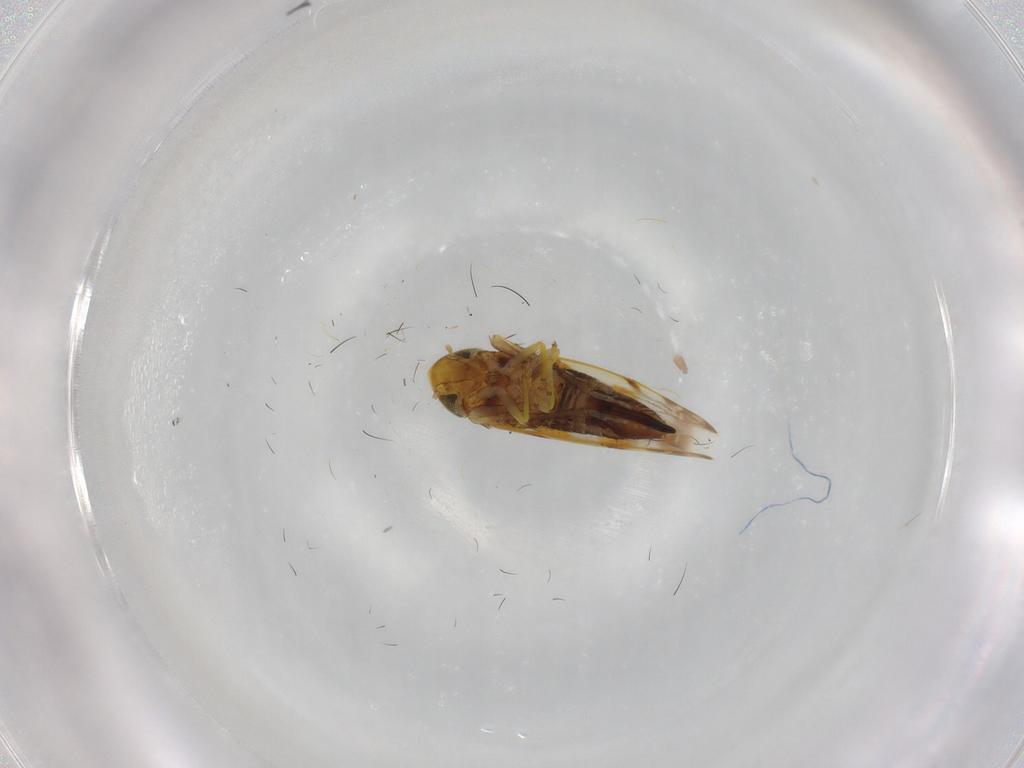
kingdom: Animalia
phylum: Arthropoda
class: Insecta
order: Hemiptera
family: Cicadellidae
